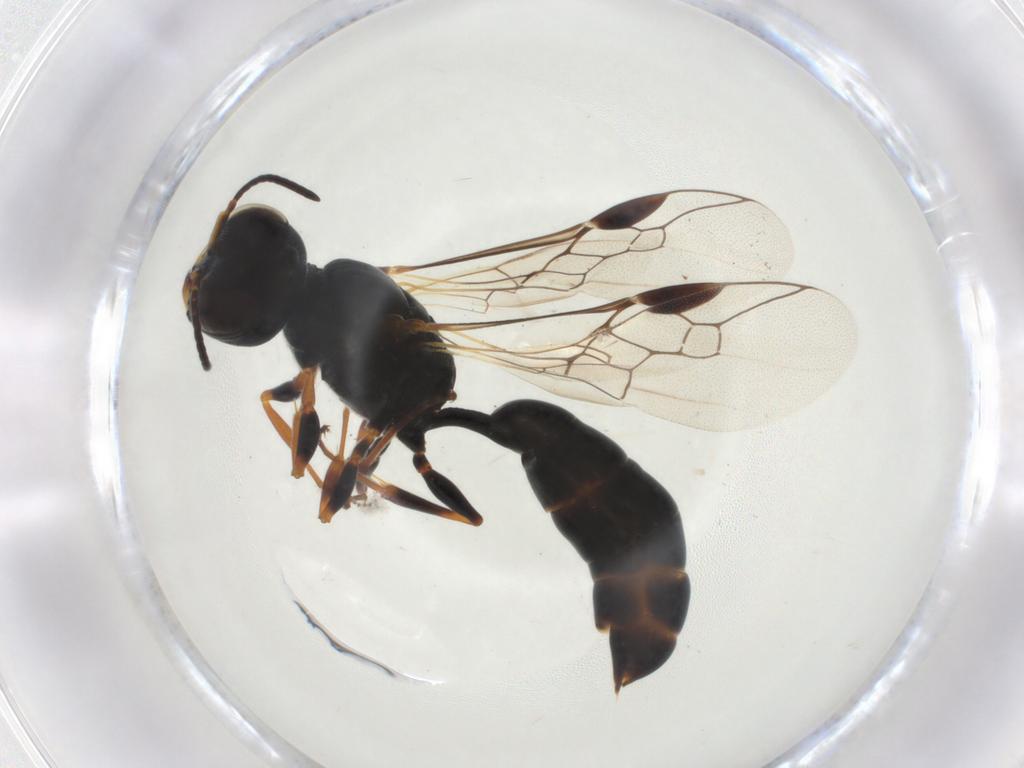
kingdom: Animalia
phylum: Arthropoda
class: Insecta
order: Hymenoptera
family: Pemphredonidae
